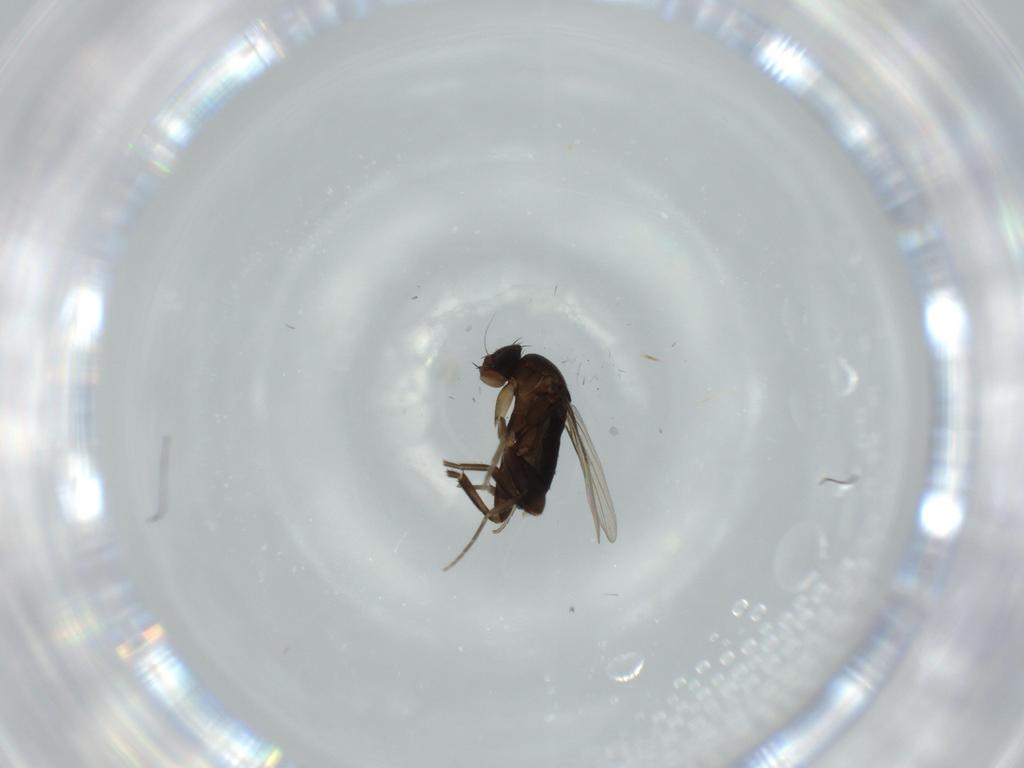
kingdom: Animalia
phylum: Arthropoda
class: Insecta
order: Diptera
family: Phoridae
